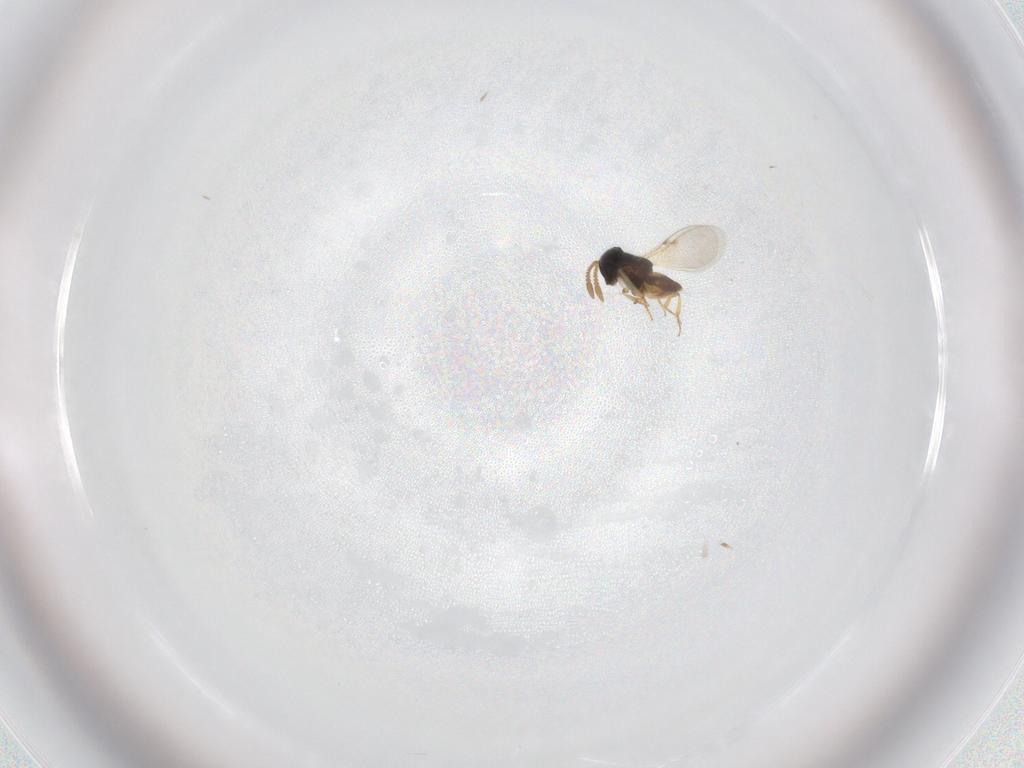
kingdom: Animalia
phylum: Arthropoda
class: Insecta
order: Hymenoptera
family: Encyrtidae
